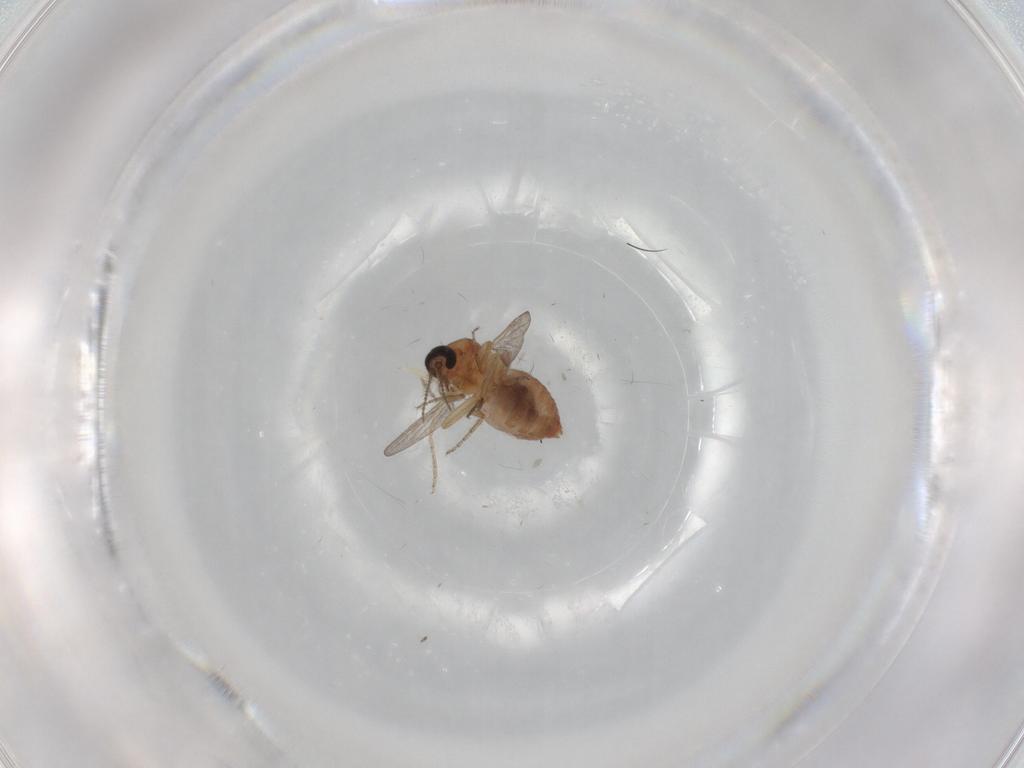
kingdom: Animalia
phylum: Arthropoda
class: Insecta
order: Diptera
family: Ceratopogonidae
